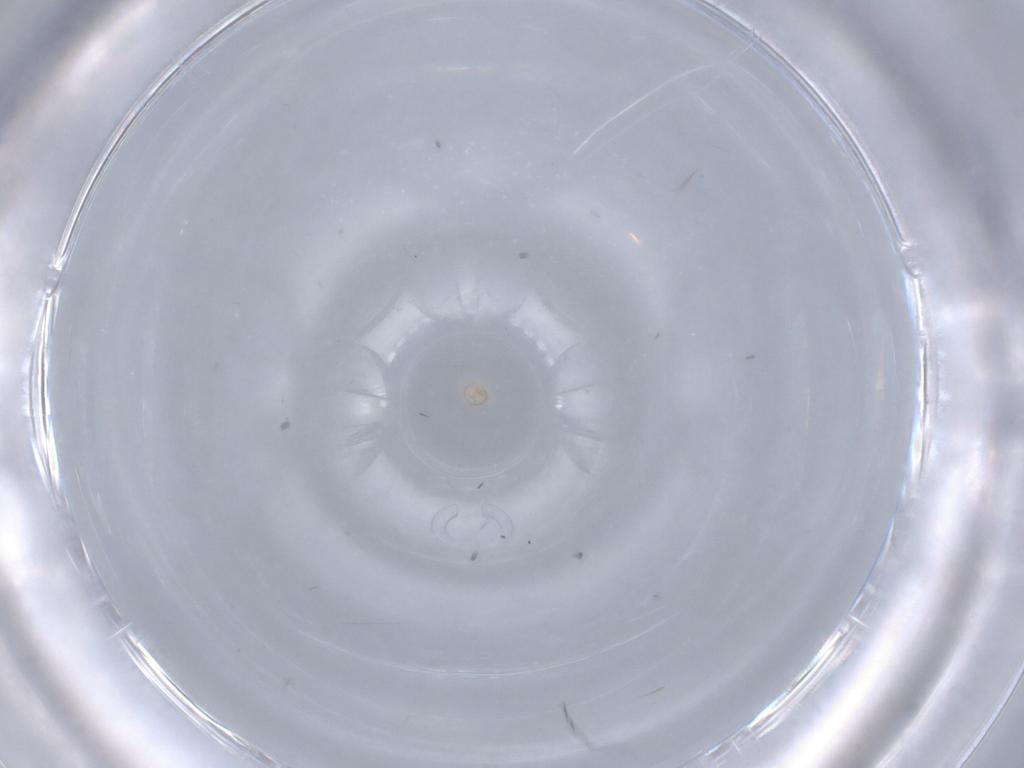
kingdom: Animalia
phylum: Arthropoda
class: Arachnida
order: Trombidiformes
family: Scutacaridae
